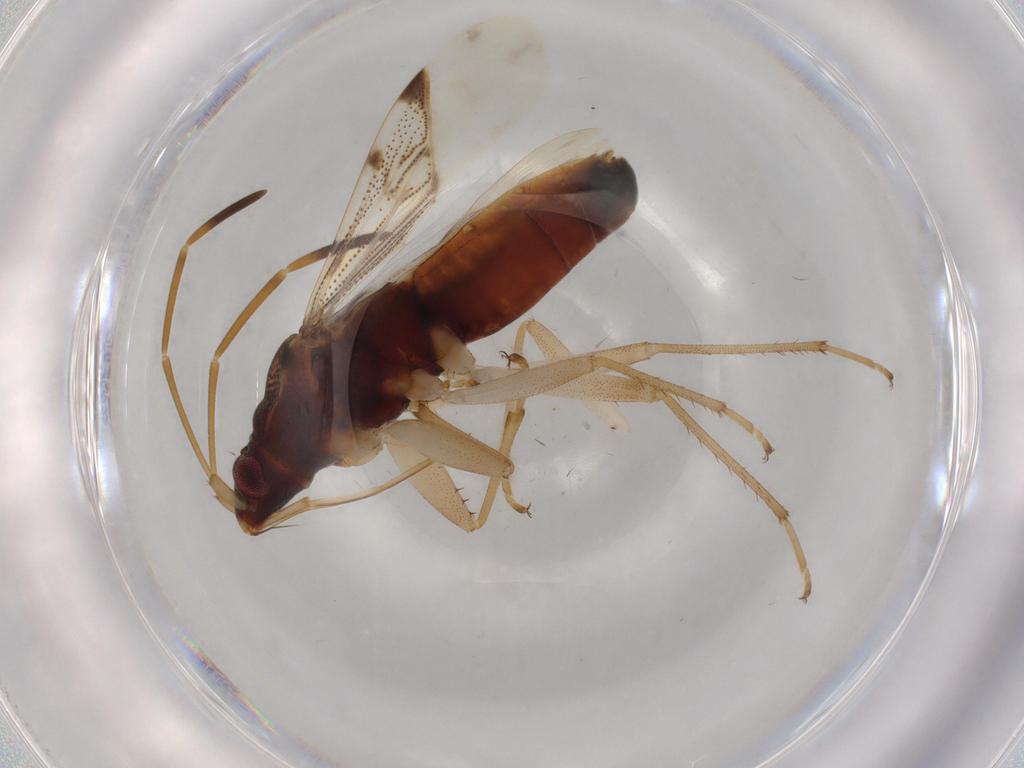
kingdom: Animalia
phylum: Arthropoda
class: Insecta
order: Hemiptera
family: Rhyparochromidae
